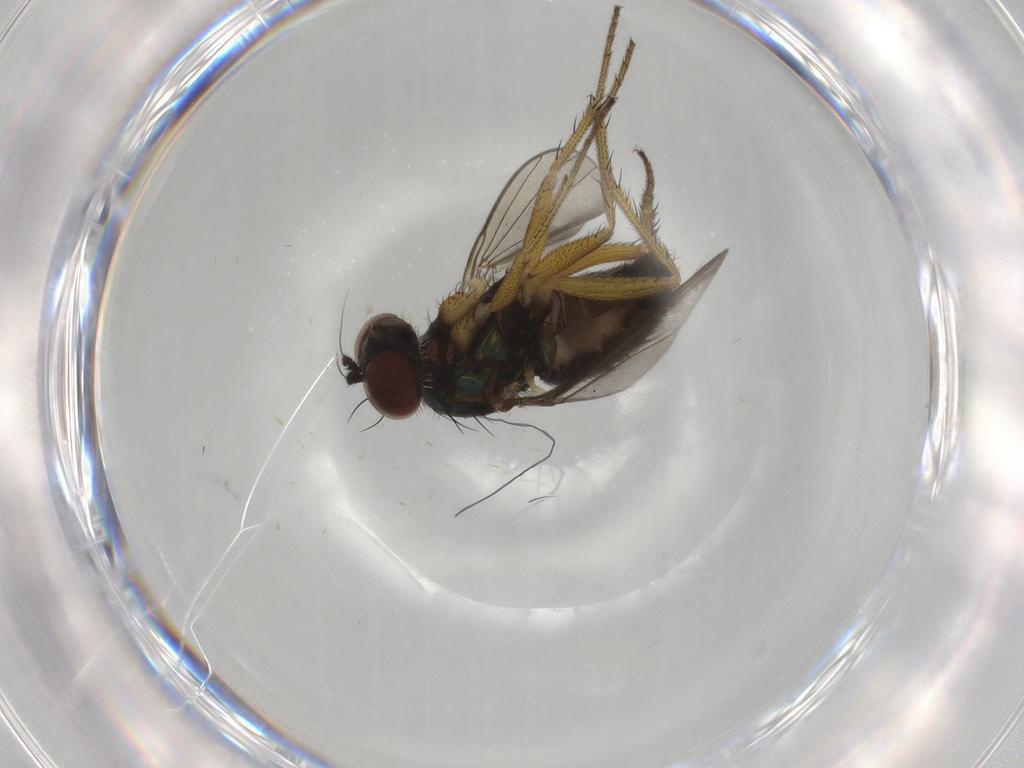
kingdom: Animalia
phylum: Arthropoda
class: Insecta
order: Diptera
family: Dolichopodidae
